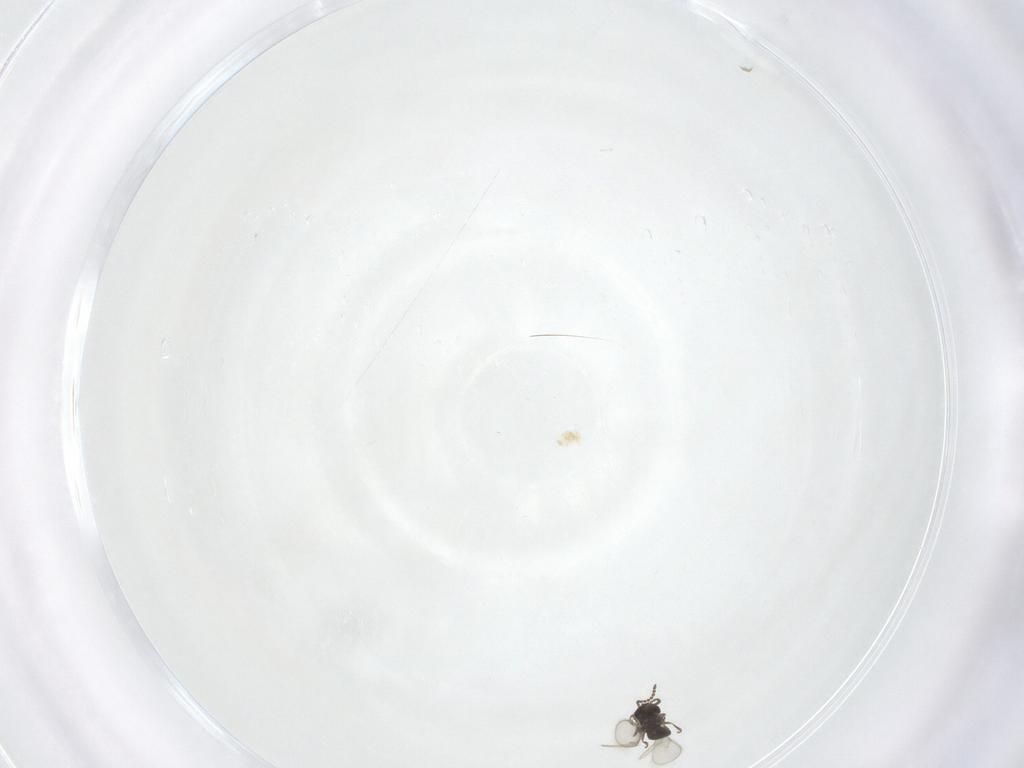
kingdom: Animalia
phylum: Arthropoda
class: Insecta
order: Hymenoptera
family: Scelionidae
